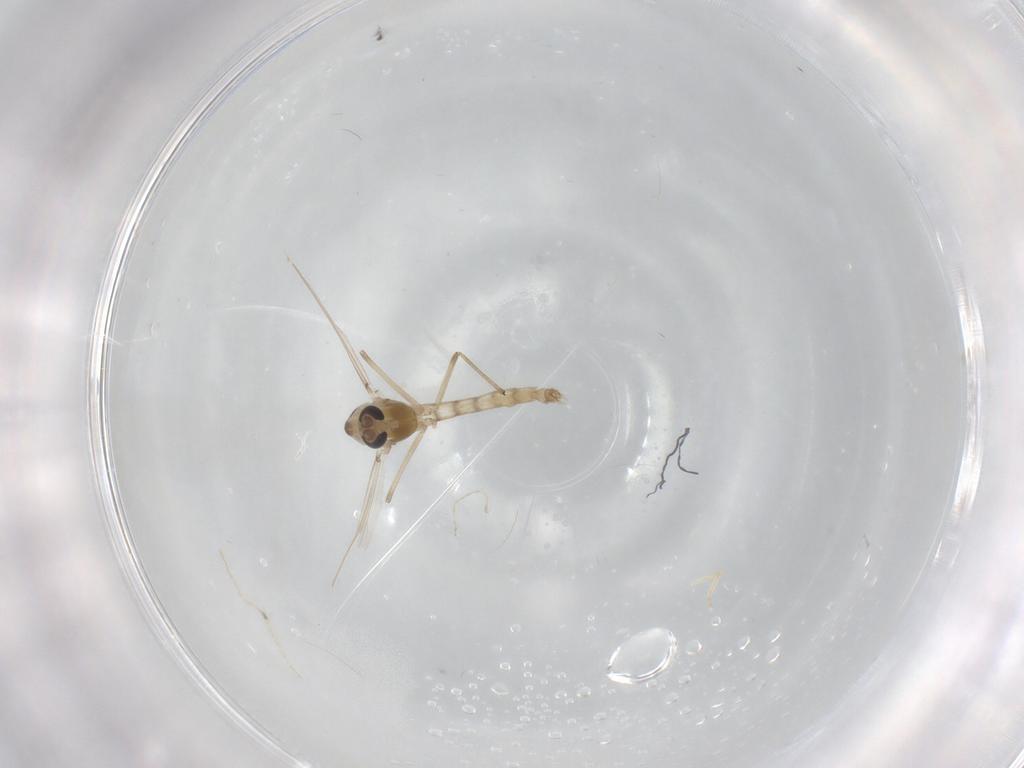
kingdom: Animalia
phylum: Arthropoda
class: Insecta
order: Diptera
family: Chironomidae
